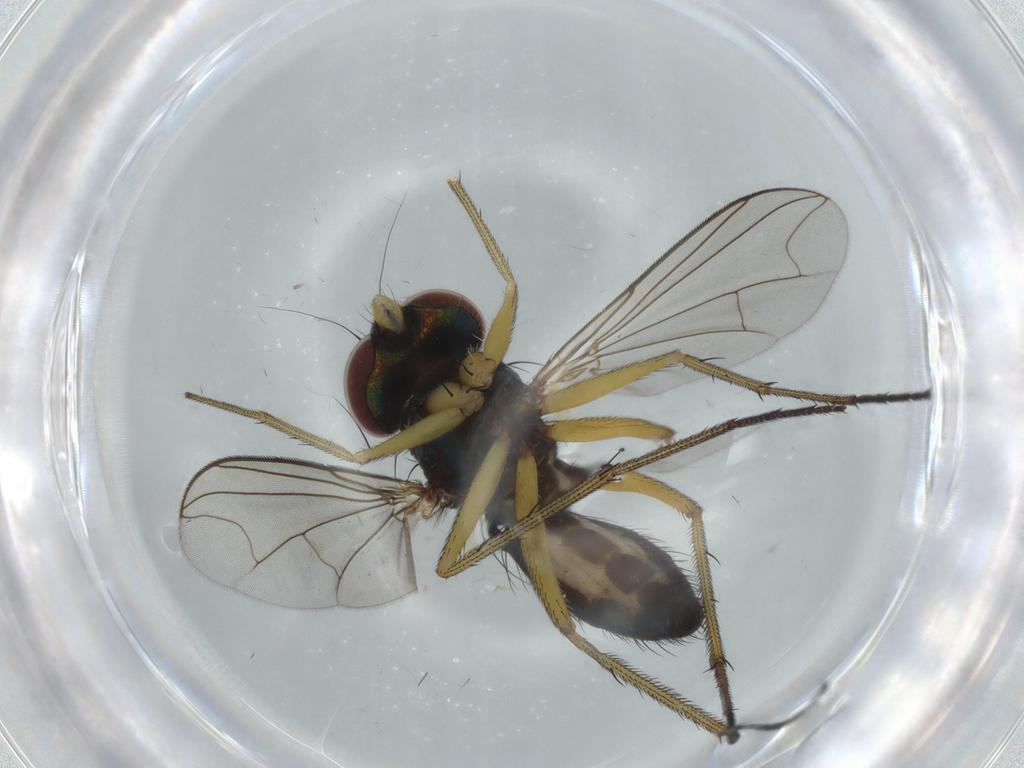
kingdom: Animalia
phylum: Arthropoda
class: Insecta
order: Diptera
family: Dolichopodidae
